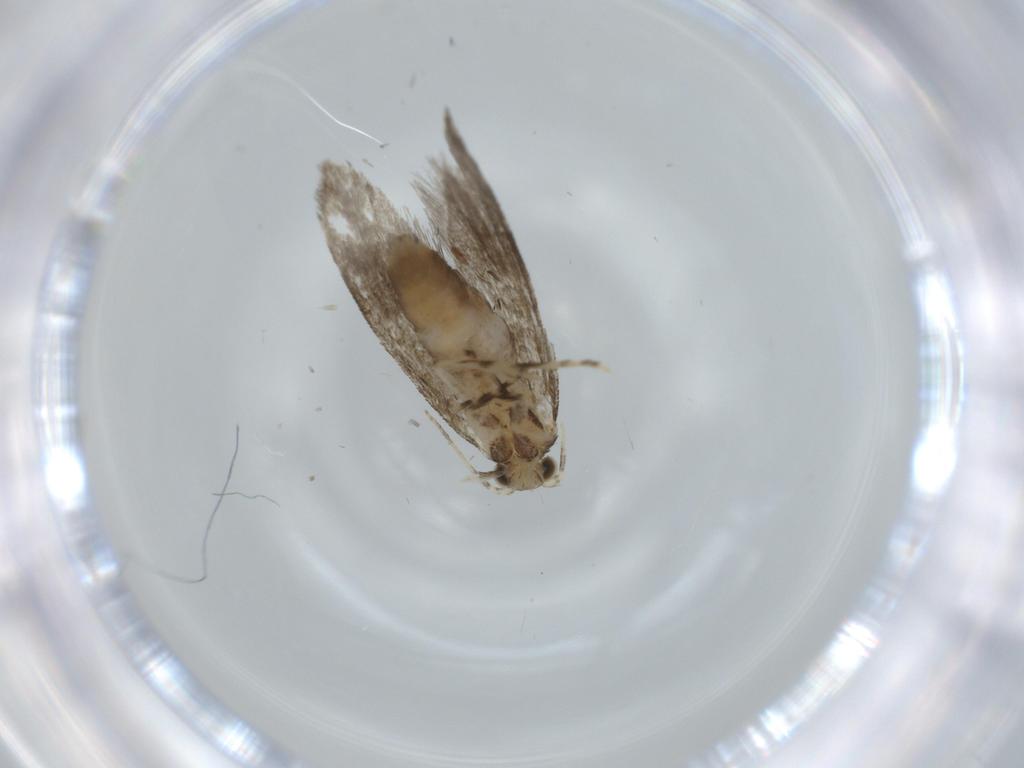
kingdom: Animalia
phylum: Arthropoda
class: Insecta
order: Lepidoptera
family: Tineidae
